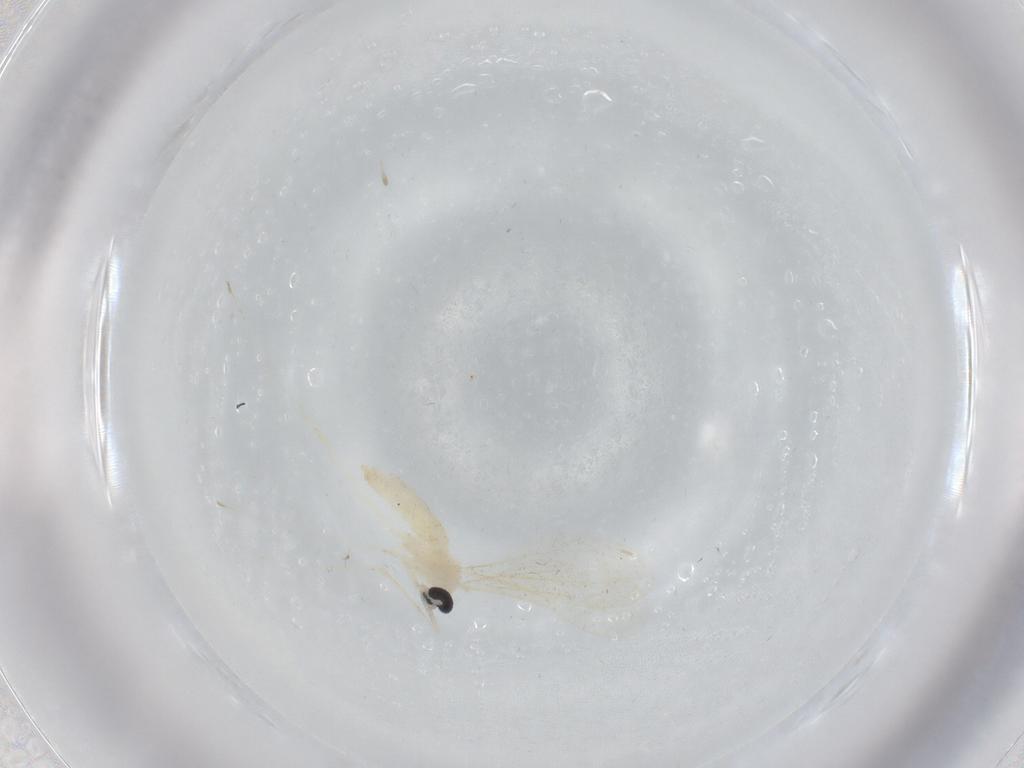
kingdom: Animalia
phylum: Arthropoda
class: Insecta
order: Diptera
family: Cecidomyiidae
